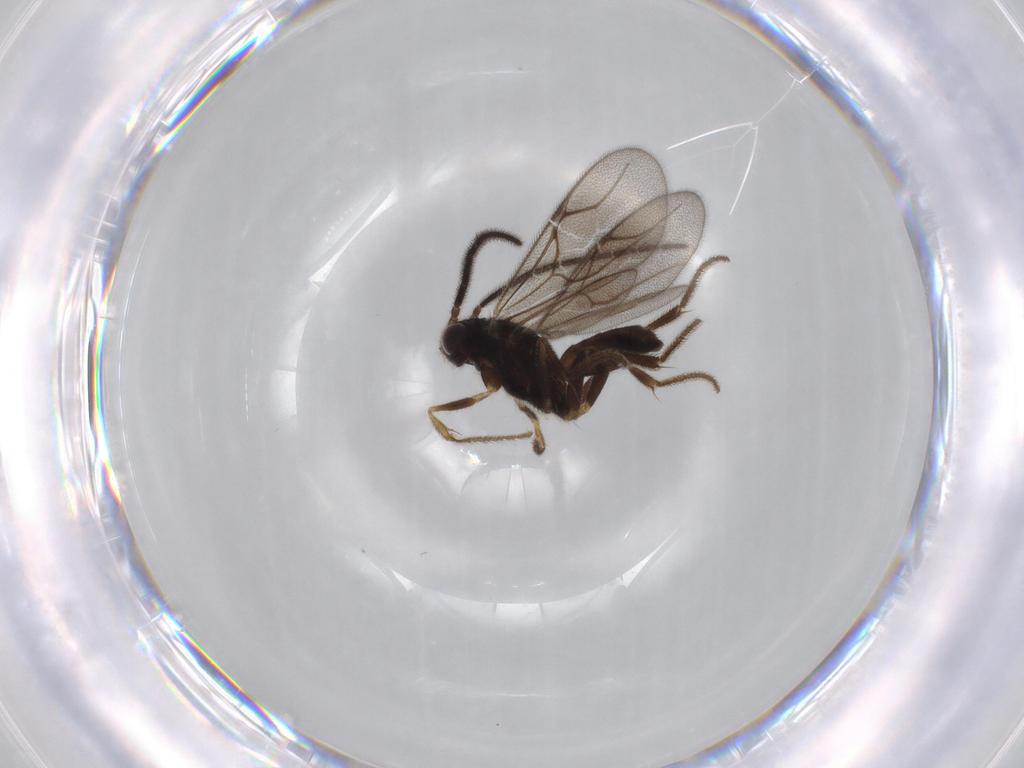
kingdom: Animalia
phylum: Arthropoda
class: Insecta
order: Hymenoptera
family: Dryinidae
